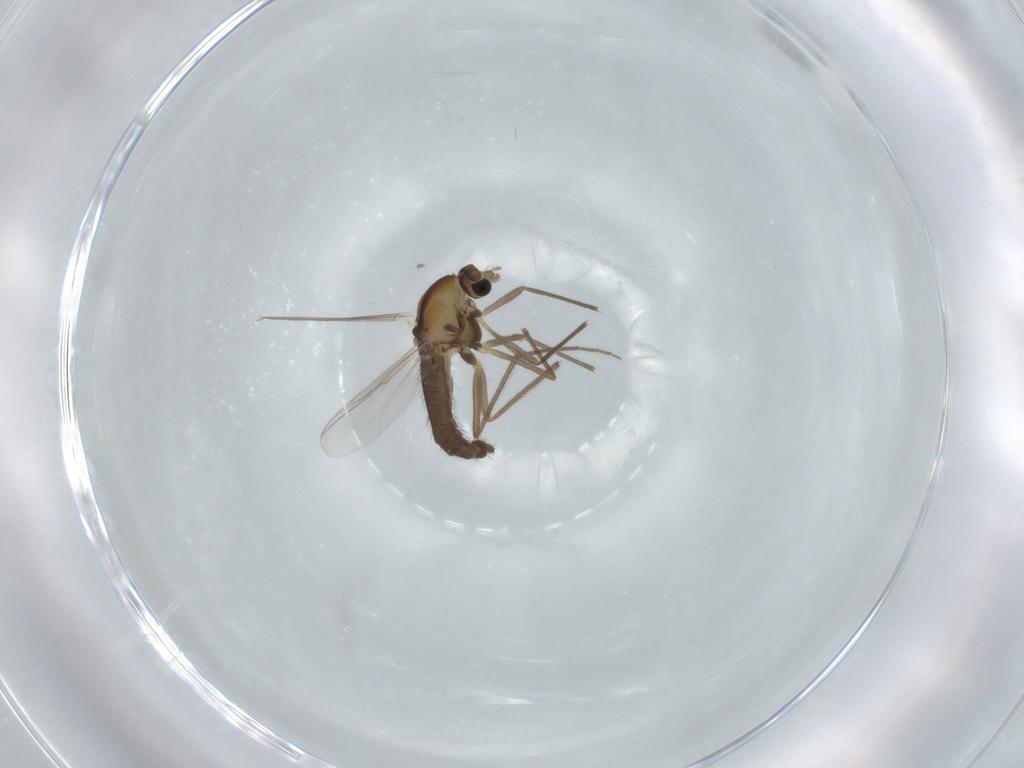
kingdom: Animalia
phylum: Arthropoda
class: Insecta
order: Diptera
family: Chironomidae
